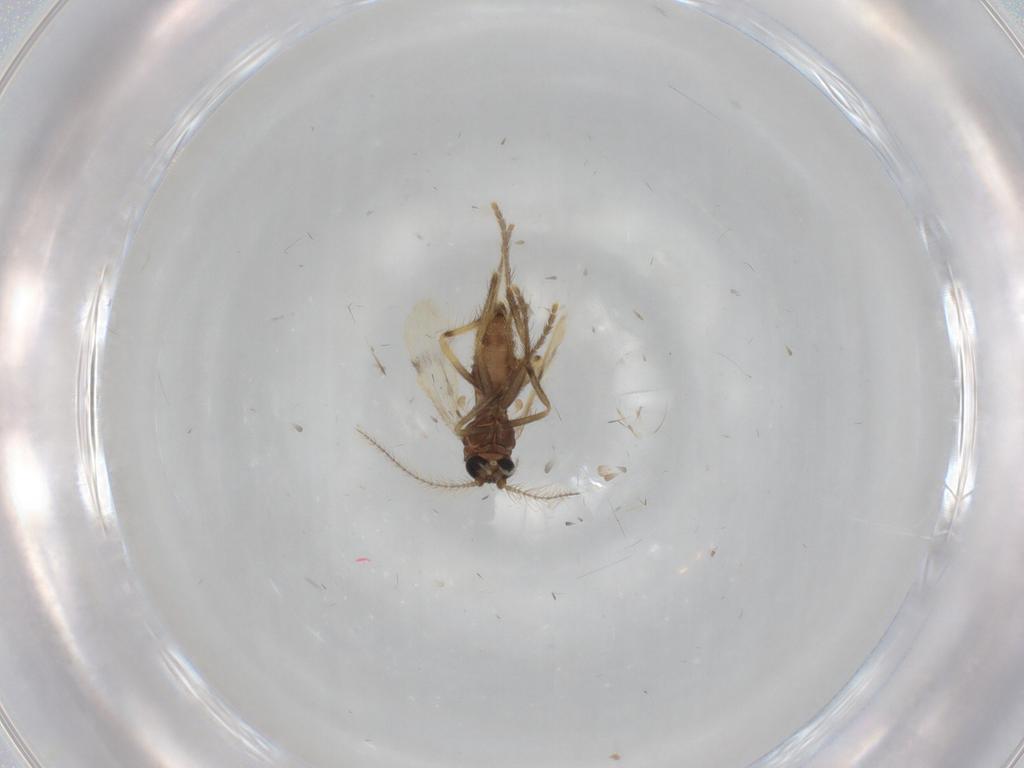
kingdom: Animalia
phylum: Arthropoda
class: Insecta
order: Diptera
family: Corethrellidae
